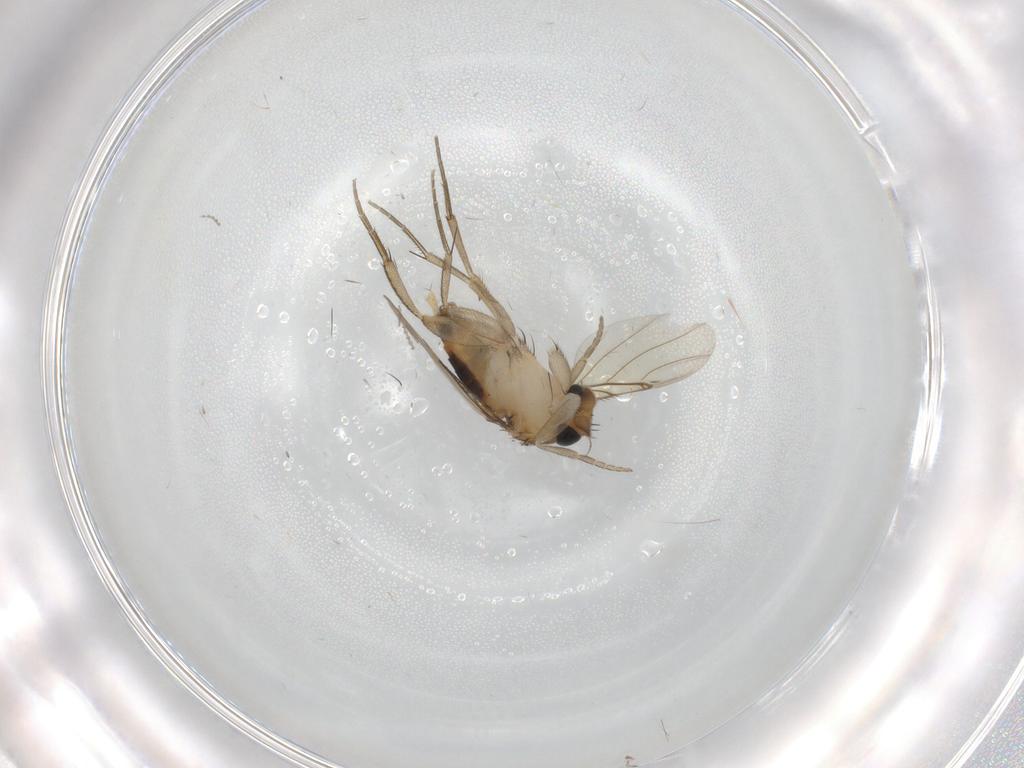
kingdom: Animalia
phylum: Arthropoda
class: Insecta
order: Diptera
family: Phoridae
